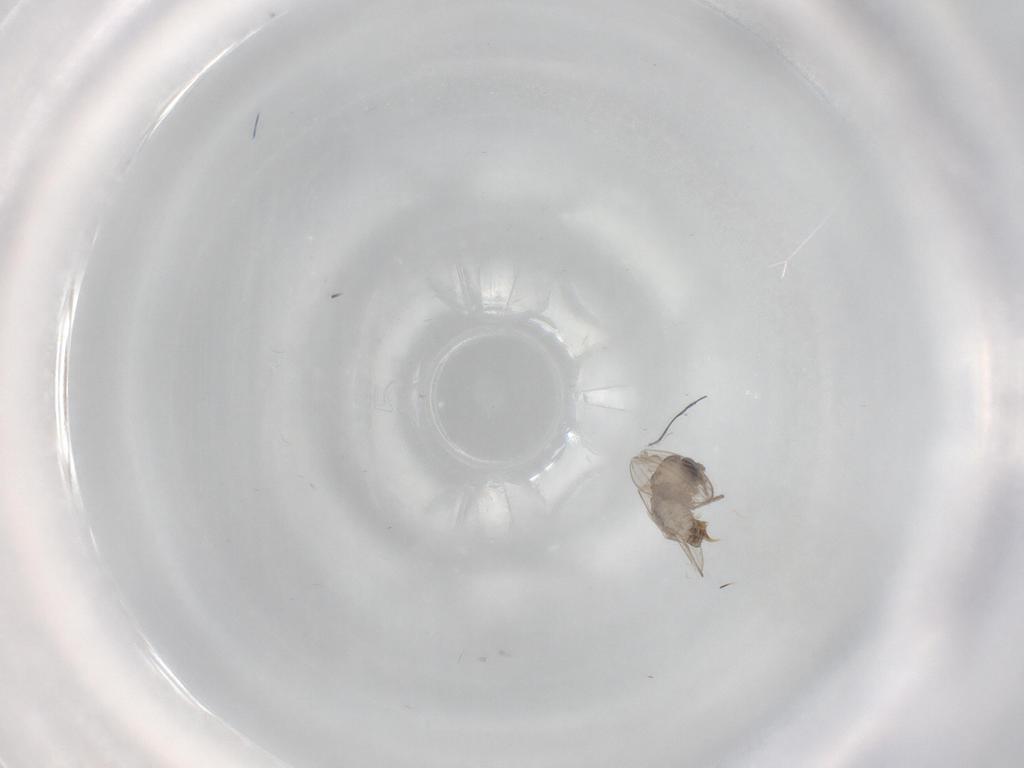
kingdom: Animalia
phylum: Arthropoda
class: Insecta
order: Diptera
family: Psychodidae
